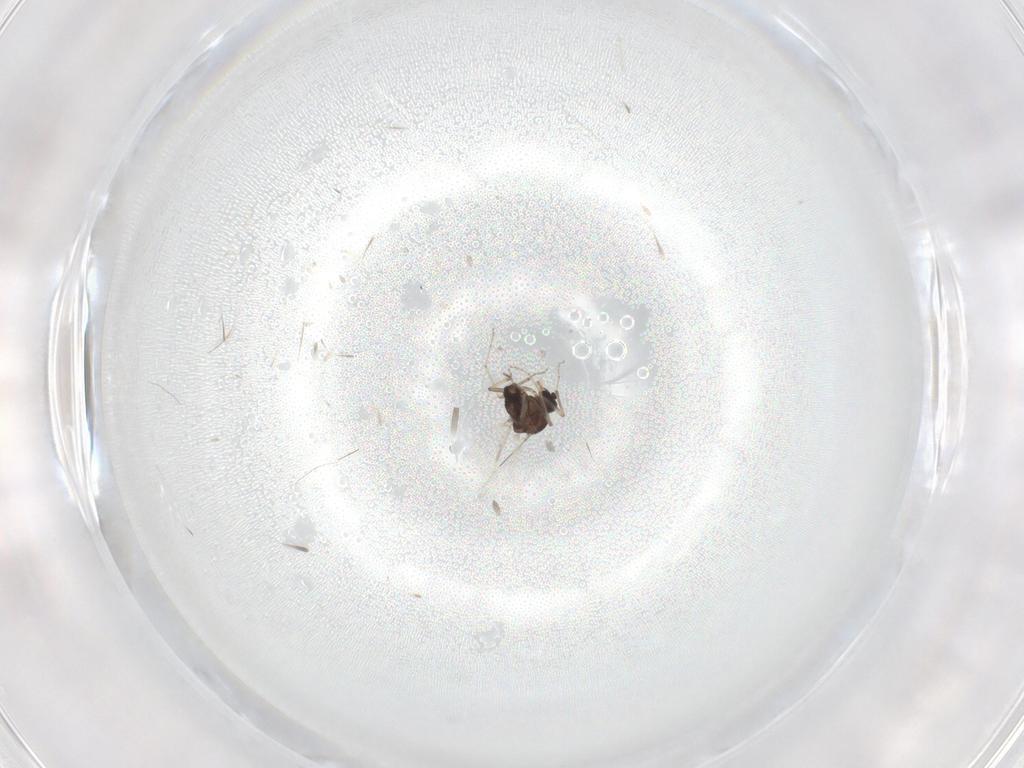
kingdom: Animalia
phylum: Arthropoda
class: Insecta
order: Diptera
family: Ceratopogonidae
